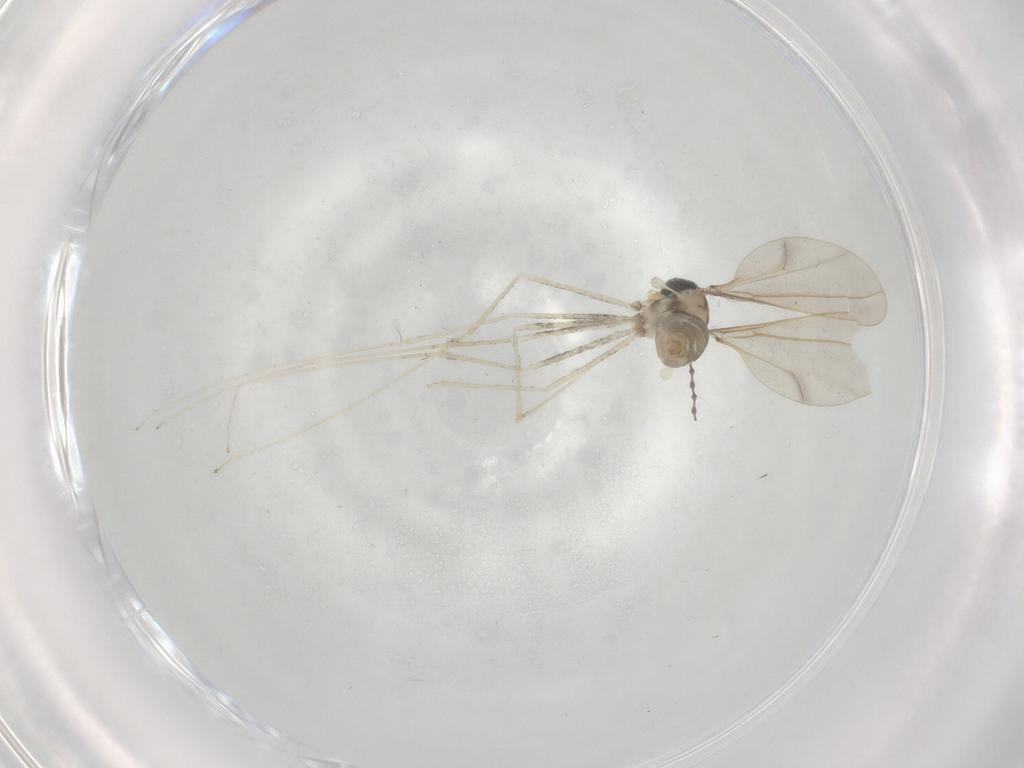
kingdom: Animalia
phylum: Arthropoda
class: Insecta
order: Diptera
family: Cecidomyiidae
